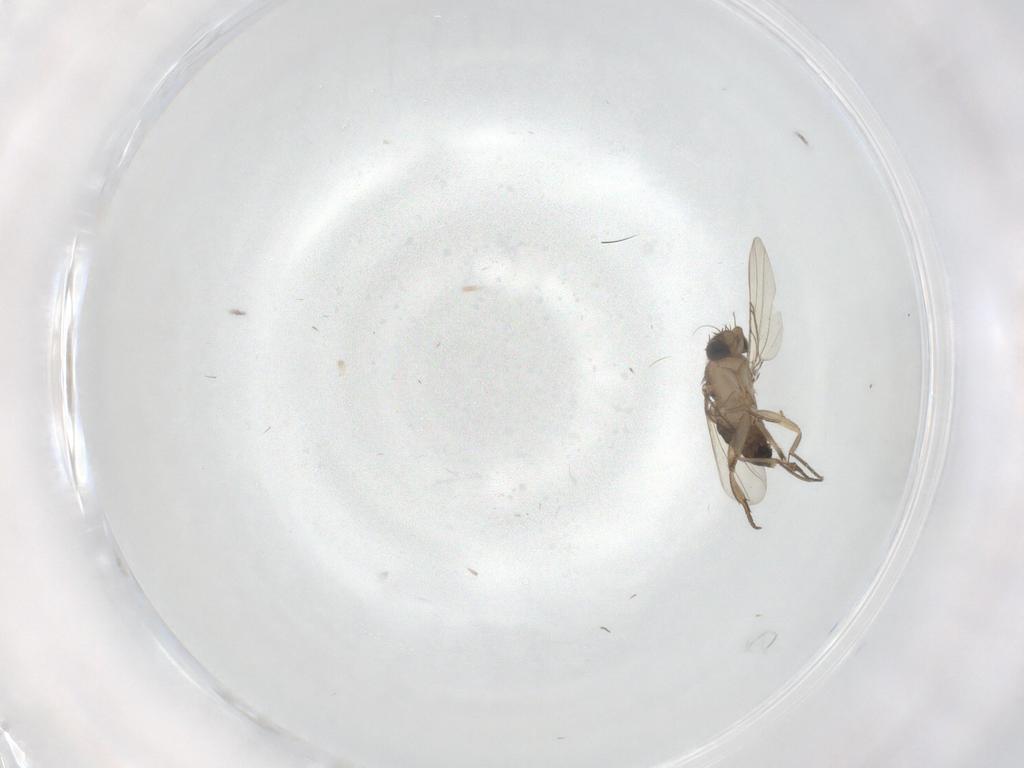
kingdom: Animalia
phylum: Arthropoda
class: Insecta
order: Diptera
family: Phoridae
